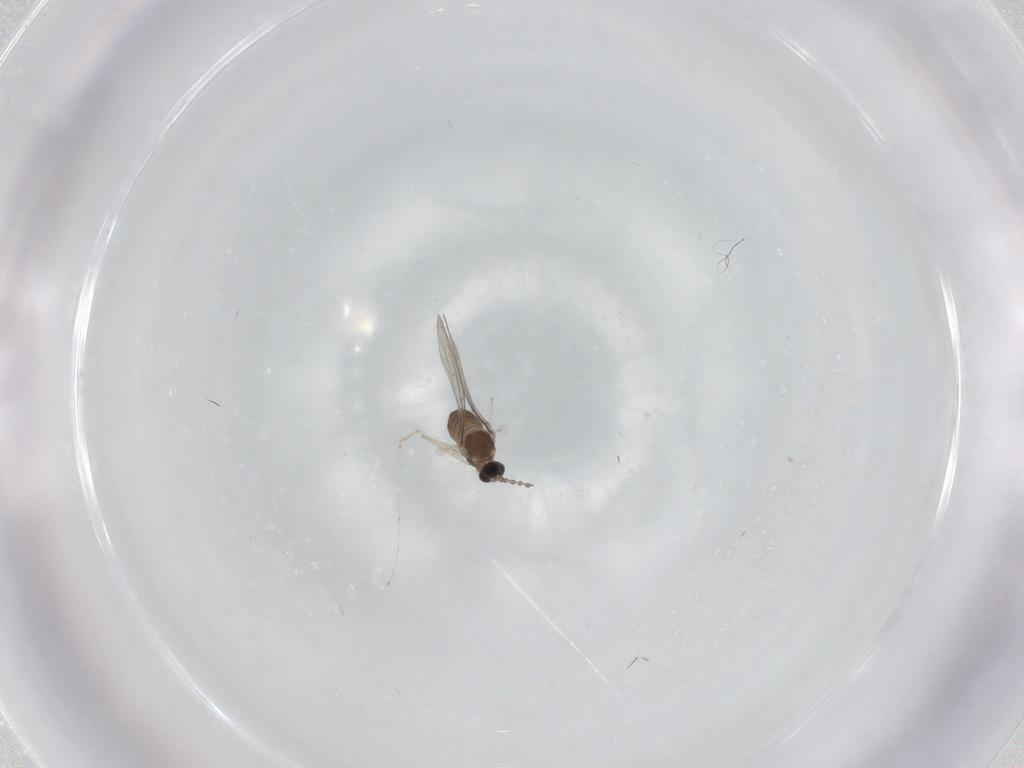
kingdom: Animalia
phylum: Arthropoda
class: Insecta
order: Diptera
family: Cecidomyiidae
